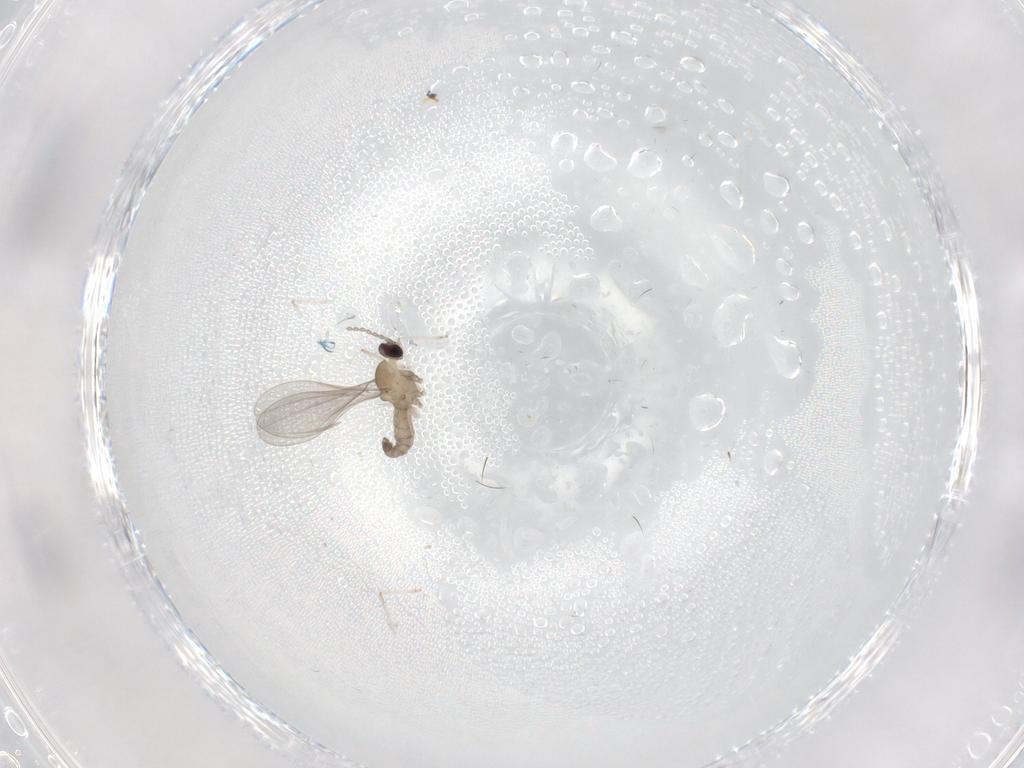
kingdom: Animalia
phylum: Arthropoda
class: Insecta
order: Diptera
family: Cecidomyiidae
